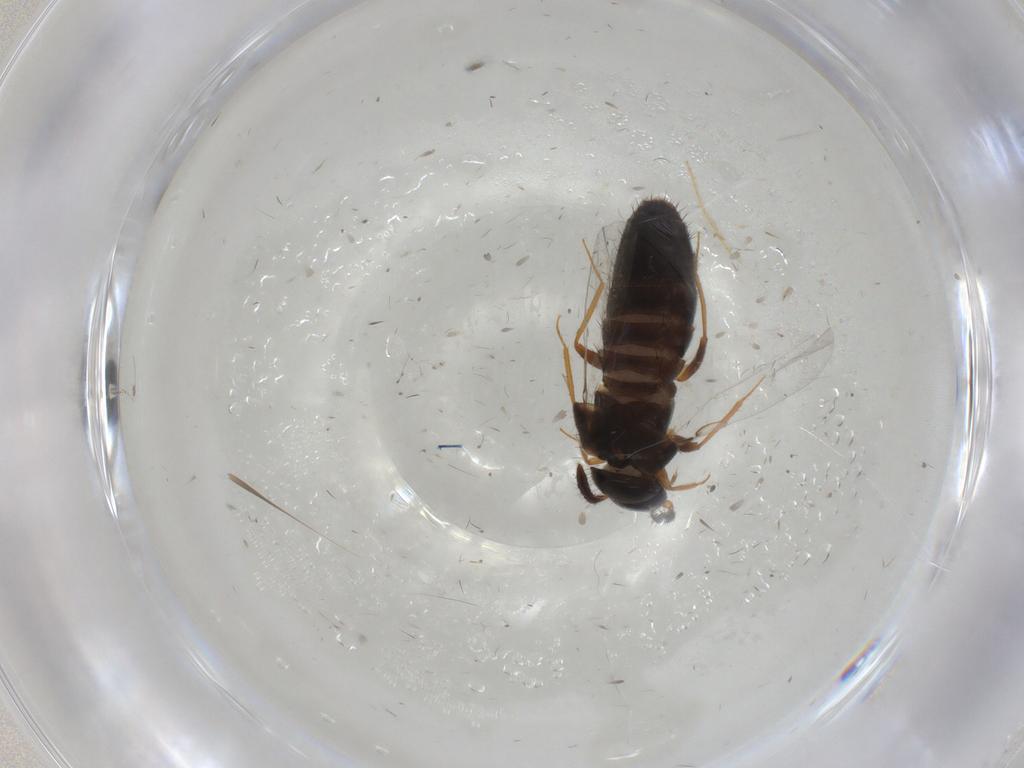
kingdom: Animalia
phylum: Arthropoda
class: Insecta
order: Coleoptera
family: Staphylinidae
